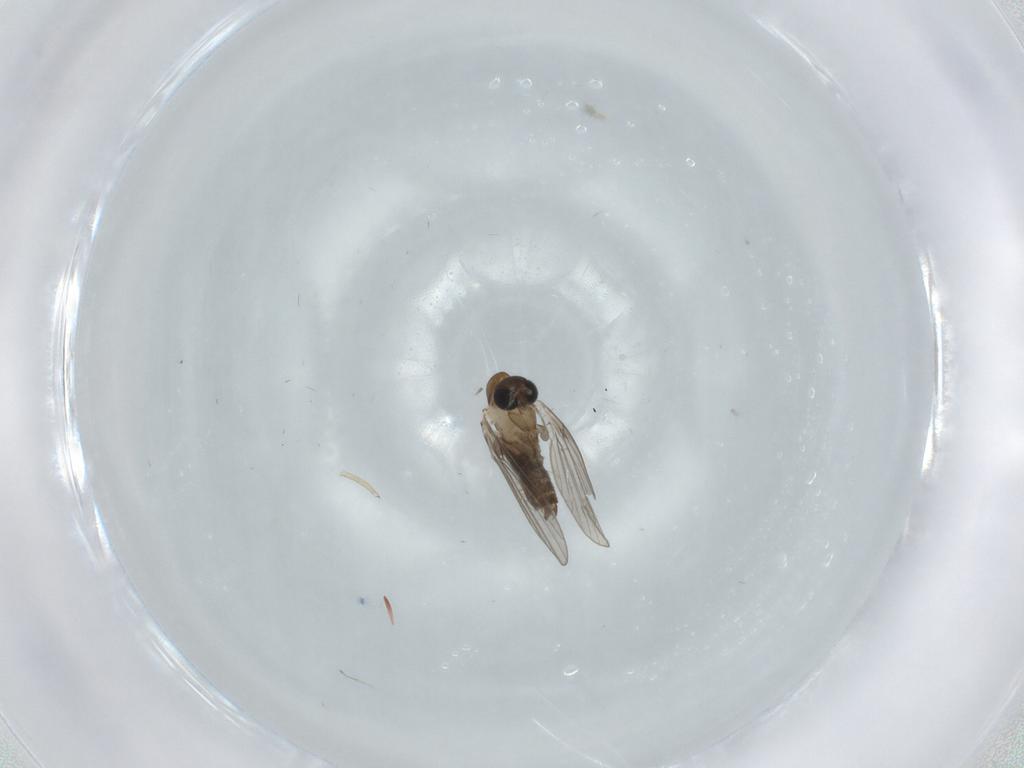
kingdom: Animalia
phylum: Arthropoda
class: Insecta
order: Diptera
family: Psychodidae
